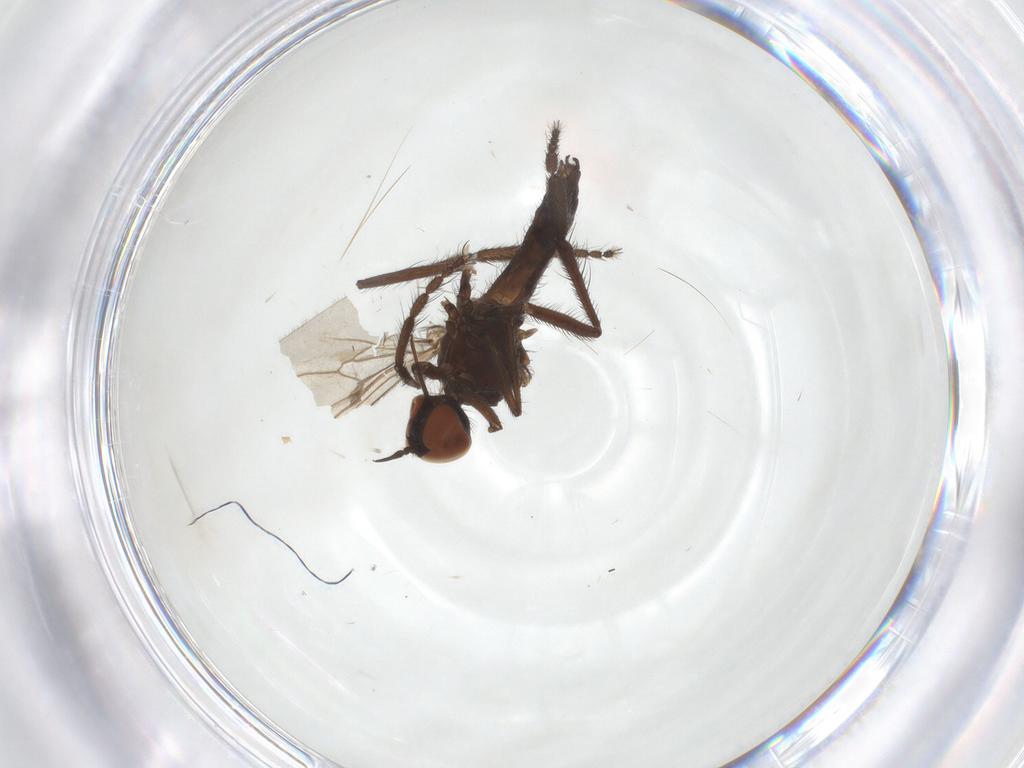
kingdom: Animalia
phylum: Arthropoda
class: Insecta
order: Diptera
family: Empididae
